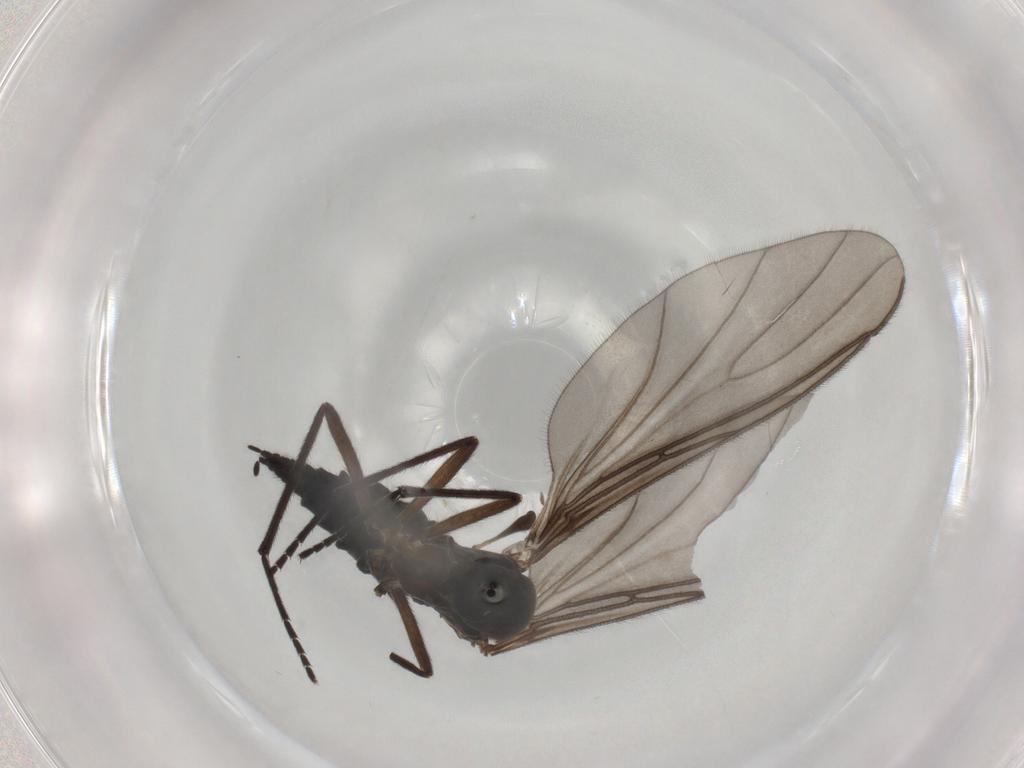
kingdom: Animalia
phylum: Arthropoda
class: Insecta
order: Diptera
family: Sciaridae
